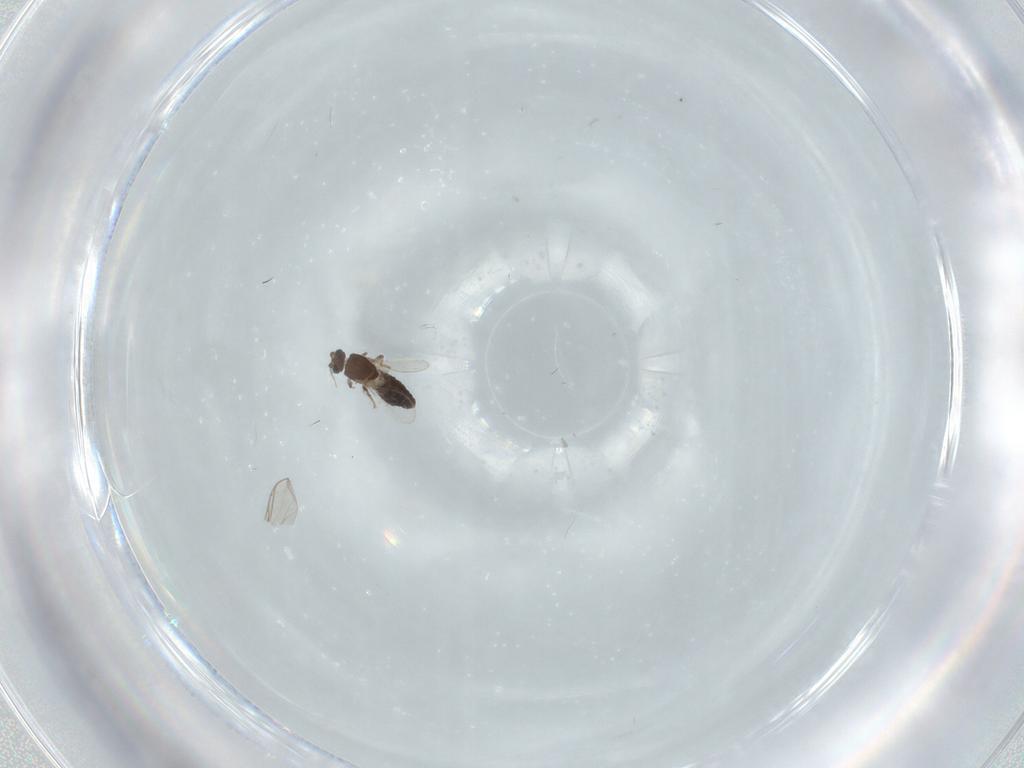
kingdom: Animalia
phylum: Arthropoda
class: Insecta
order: Diptera
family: Ceratopogonidae
